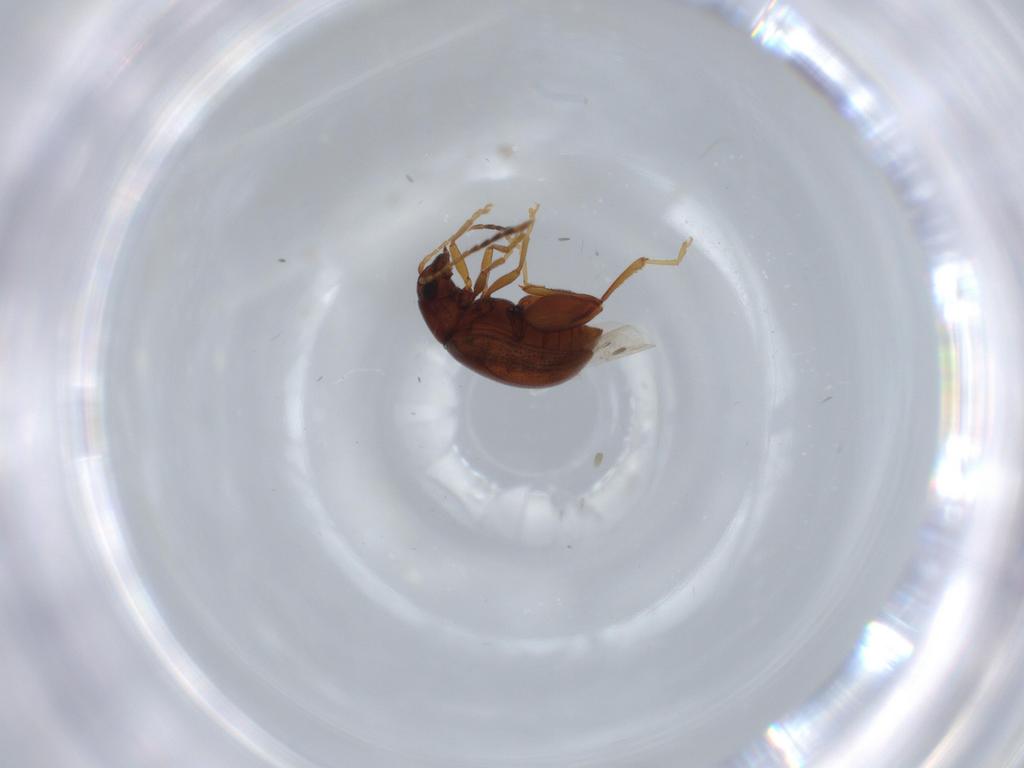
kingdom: Animalia
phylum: Arthropoda
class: Insecta
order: Coleoptera
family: Chrysomelidae
